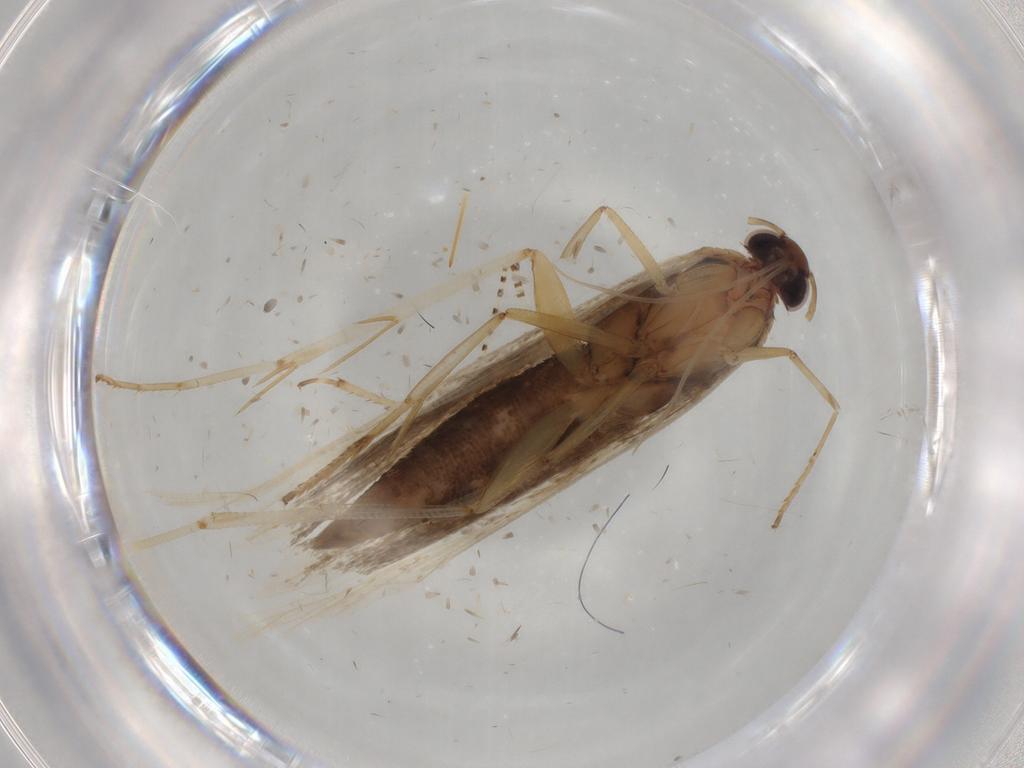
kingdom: Animalia
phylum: Arthropoda
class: Insecta
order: Lepidoptera
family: Gelechiidae
